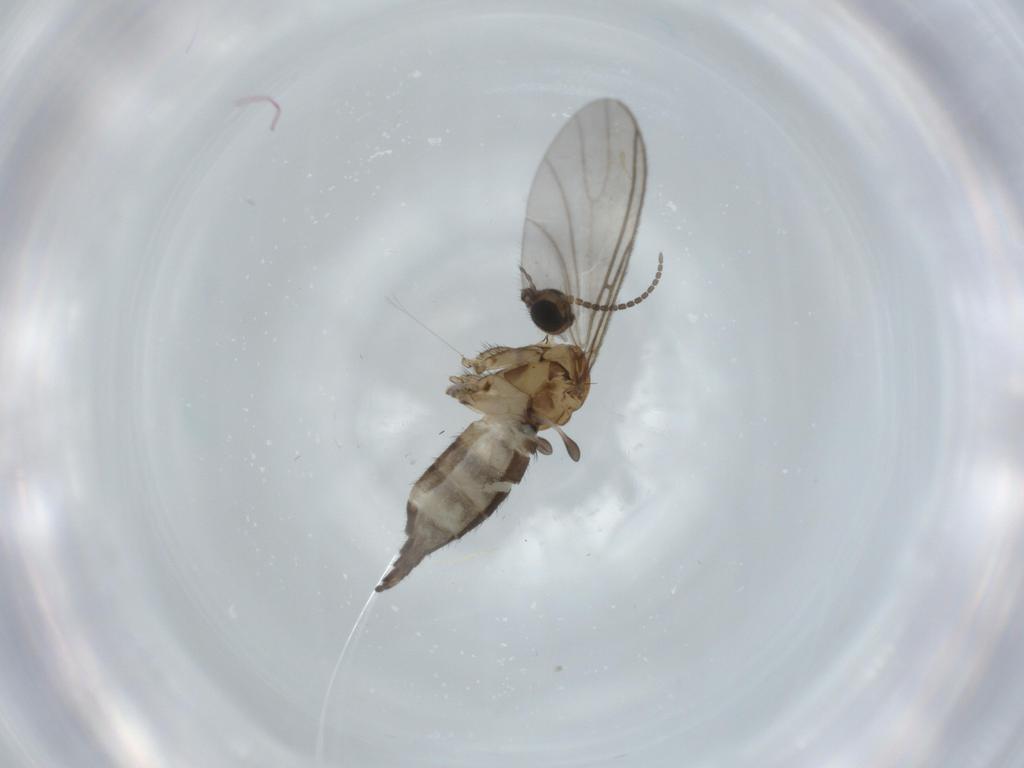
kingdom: Animalia
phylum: Arthropoda
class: Insecta
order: Diptera
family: Sciaridae
